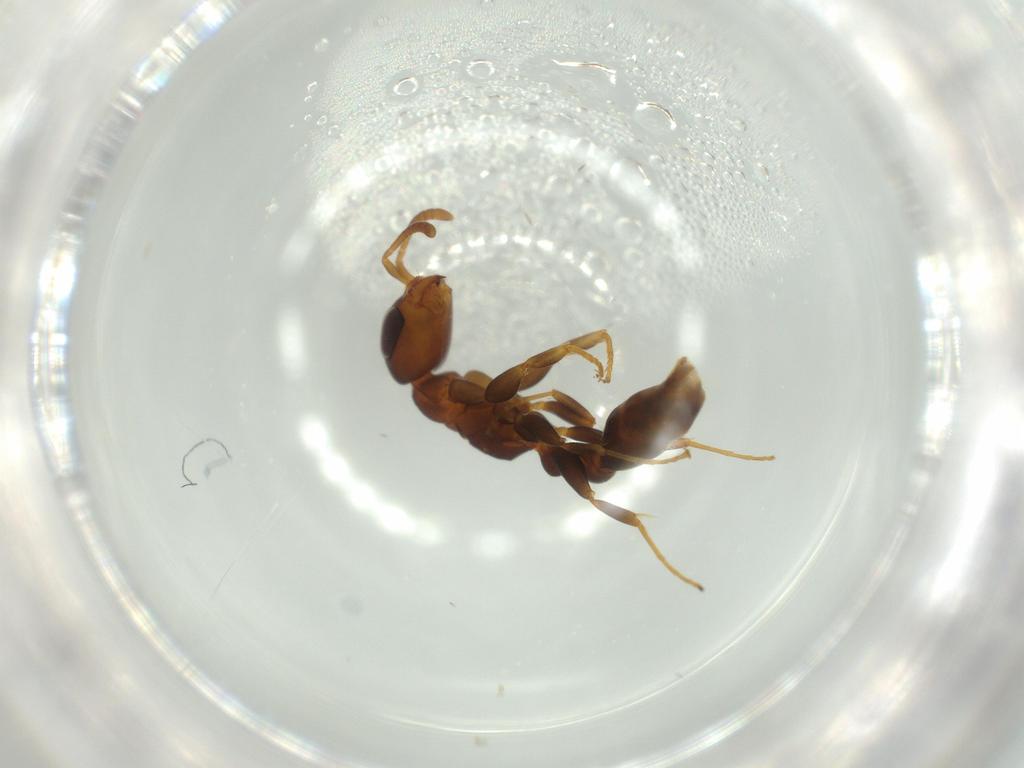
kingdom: Animalia
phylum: Arthropoda
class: Insecta
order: Hymenoptera
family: Formicidae
